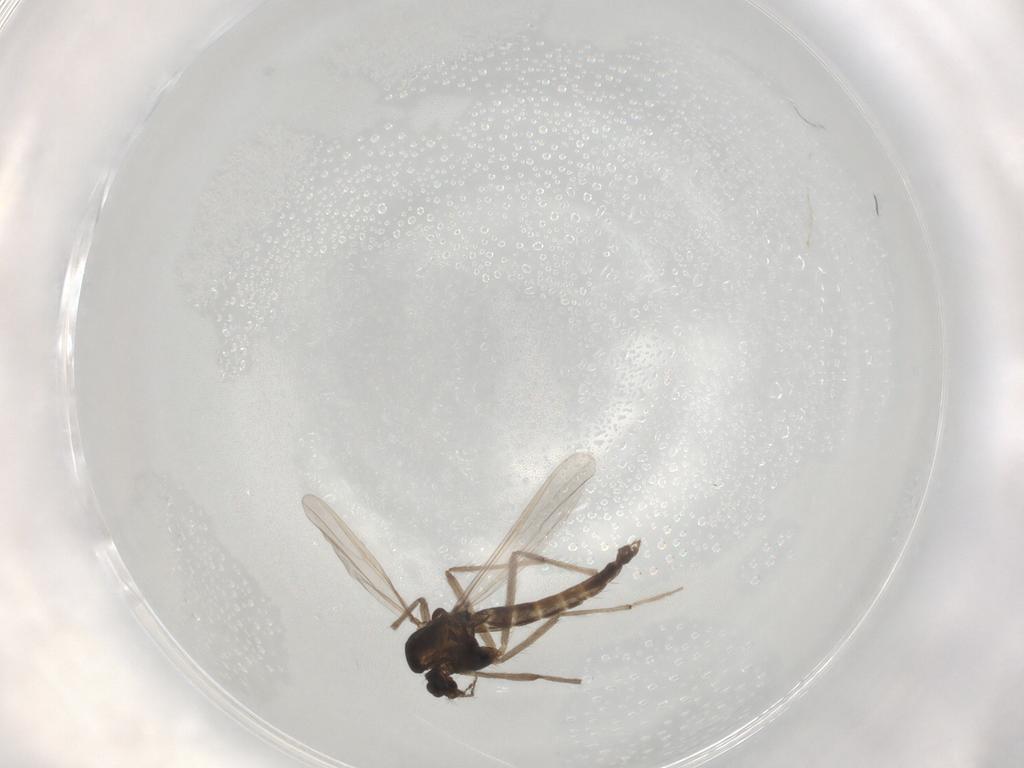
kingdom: Animalia
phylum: Arthropoda
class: Insecta
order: Diptera
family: Chironomidae
